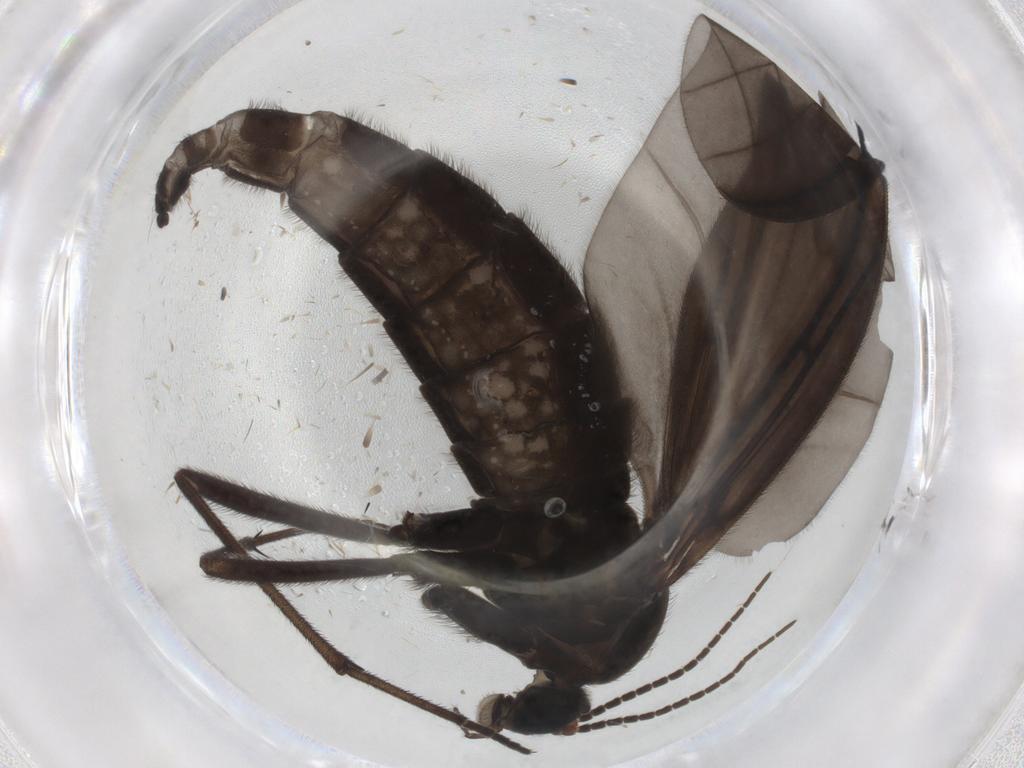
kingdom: Animalia
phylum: Arthropoda
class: Insecta
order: Diptera
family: Sciaridae
